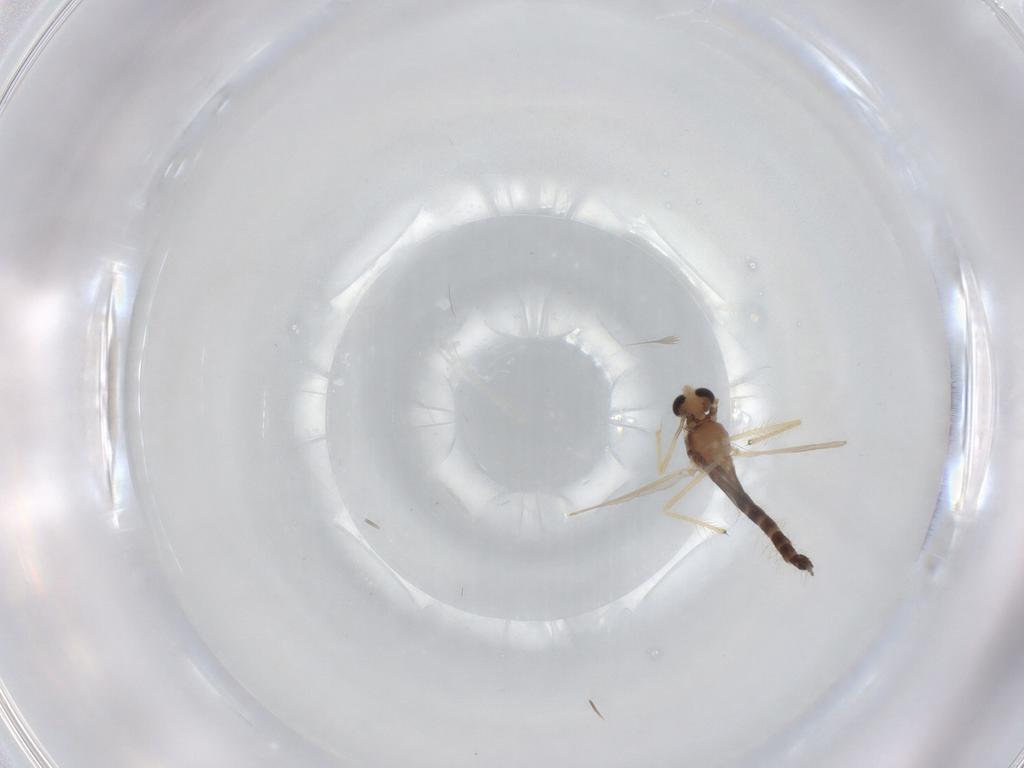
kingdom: Animalia
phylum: Arthropoda
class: Insecta
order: Diptera
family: Chironomidae
